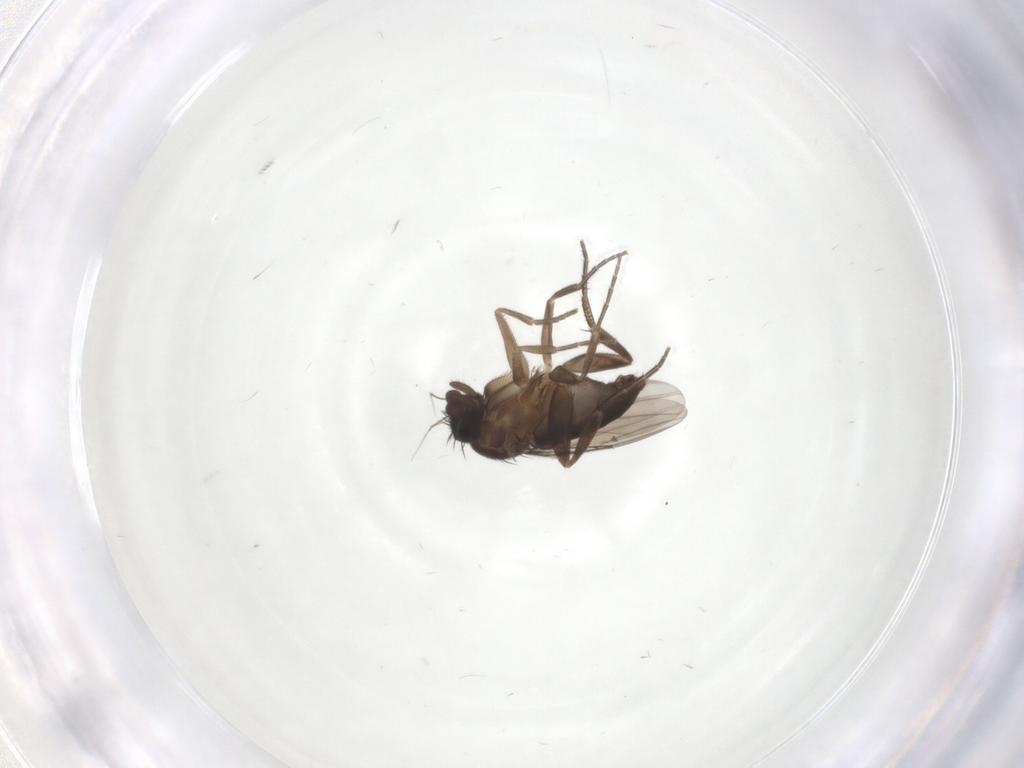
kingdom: Animalia
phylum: Arthropoda
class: Insecta
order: Diptera
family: Phoridae
